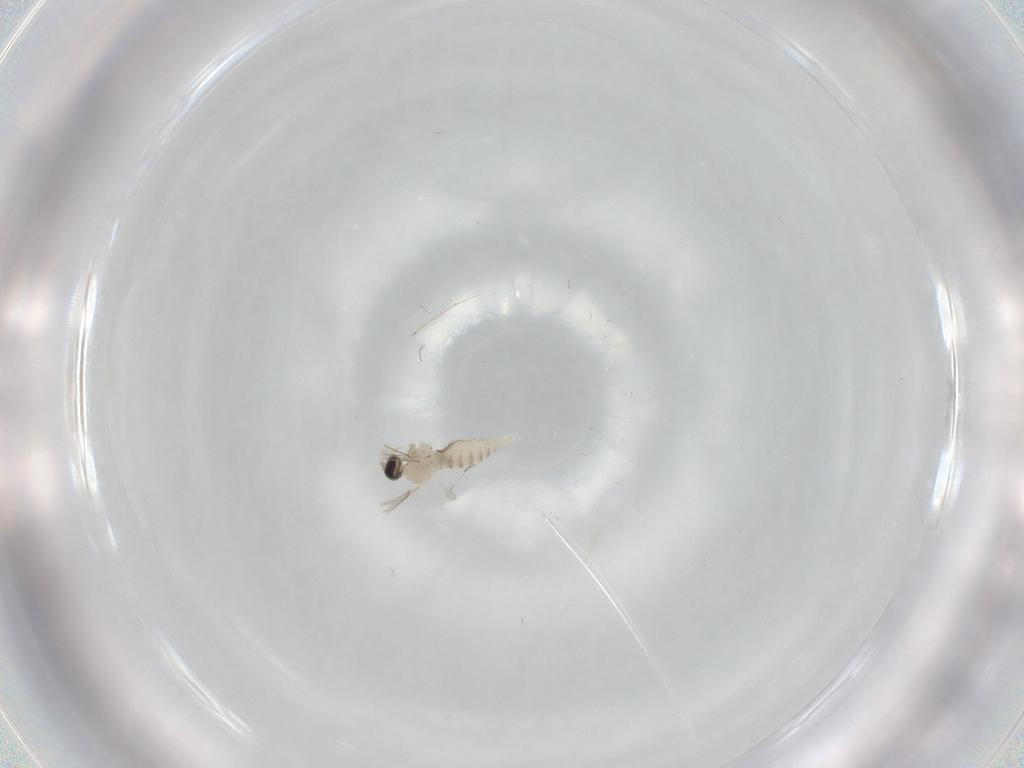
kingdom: Animalia
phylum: Arthropoda
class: Insecta
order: Diptera
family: Cecidomyiidae
